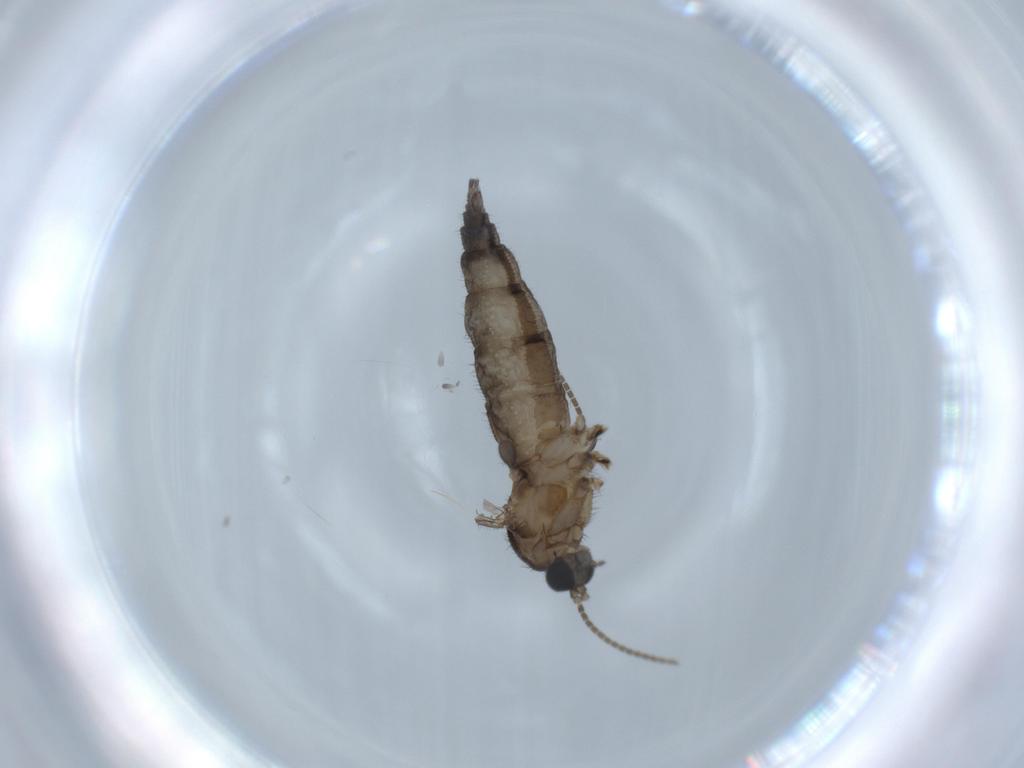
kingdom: Animalia
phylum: Arthropoda
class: Insecta
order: Diptera
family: Sciaridae
